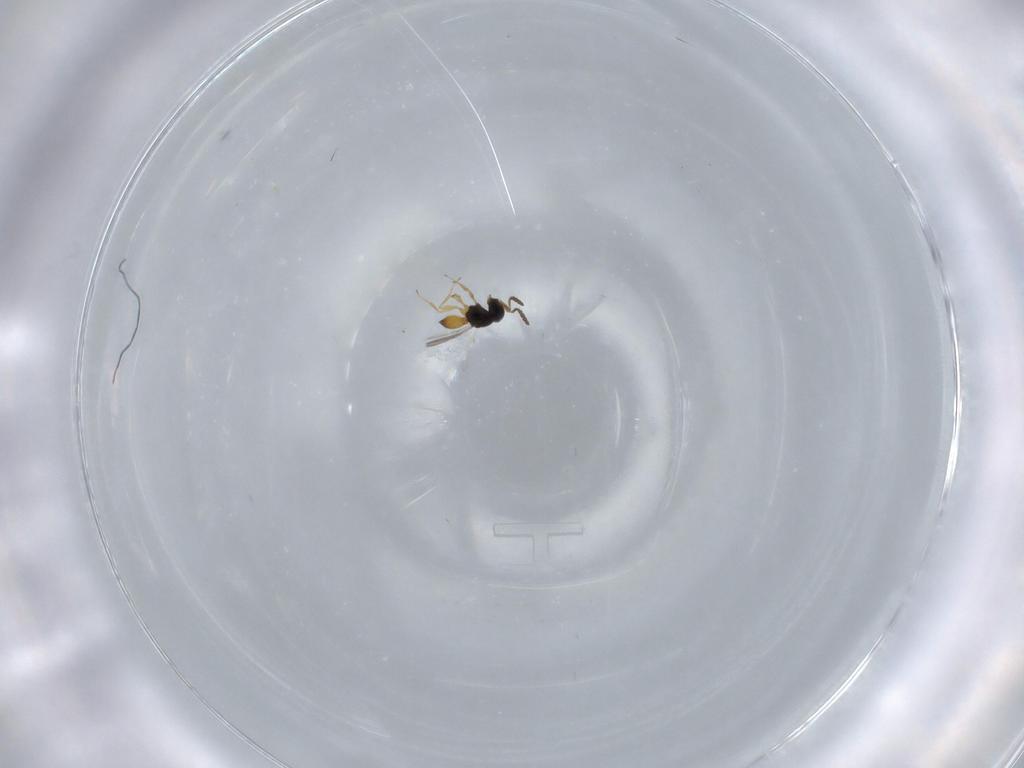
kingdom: Animalia
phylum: Arthropoda
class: Insecta
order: Hymenoptera
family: Scelionidae
